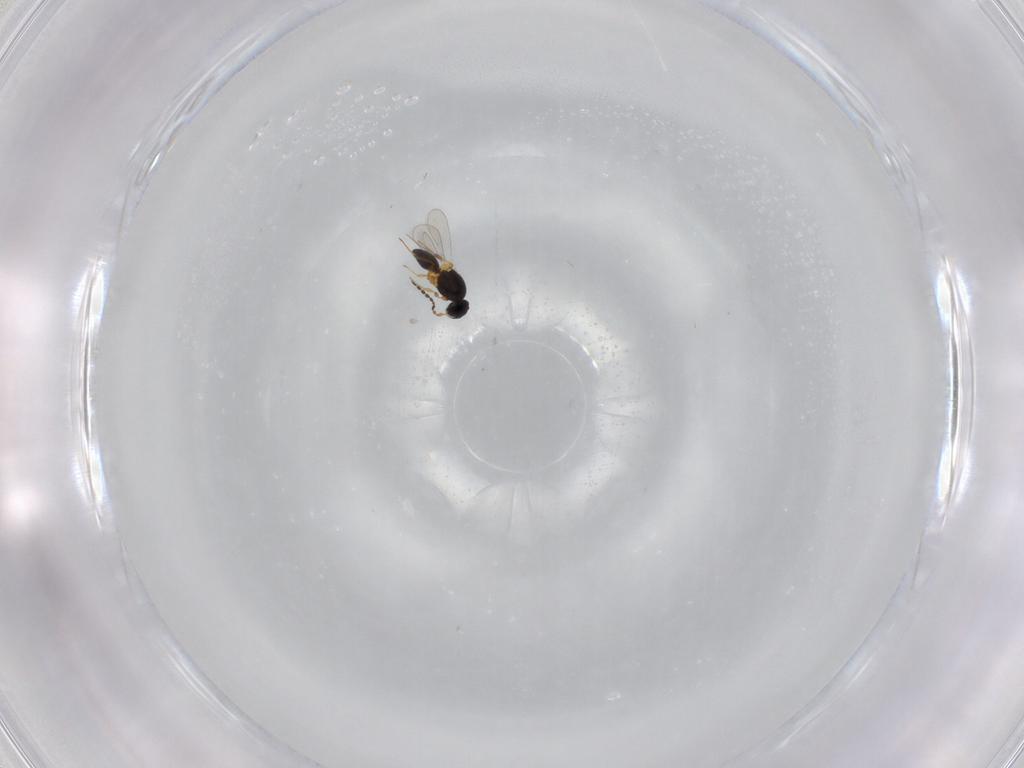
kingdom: Animalia
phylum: Arthropoda
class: Insecta
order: Hymenoptera
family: Platygastridae
